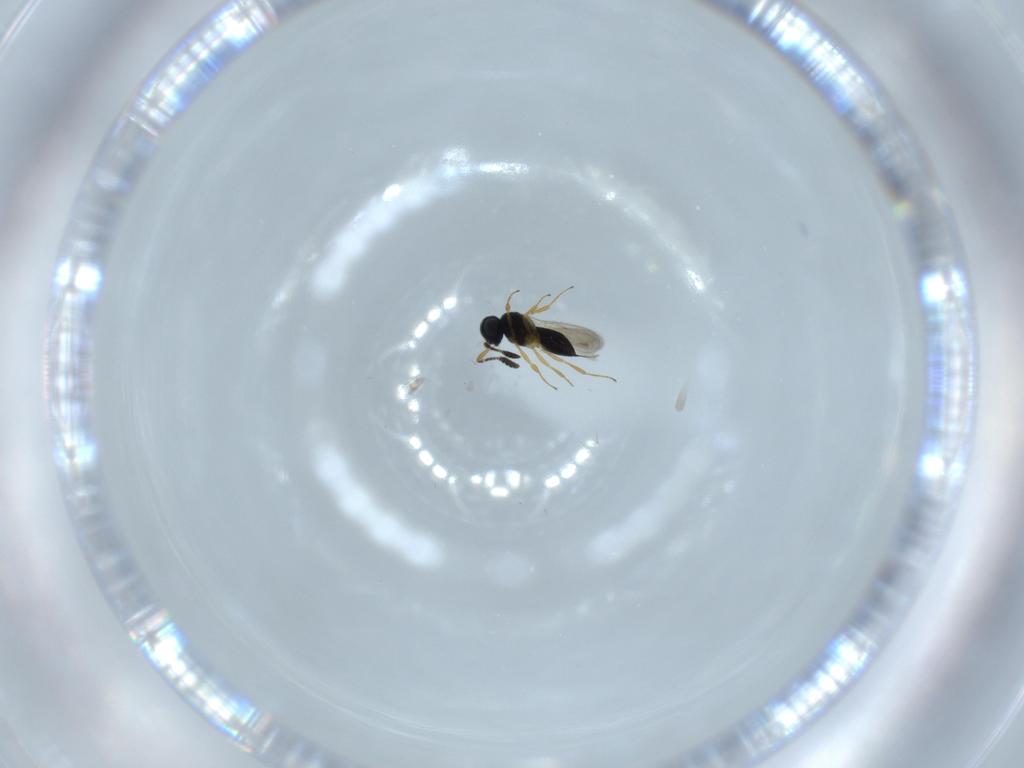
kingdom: Animalia
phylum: Arthropoda
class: Insecta
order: Hymenoptera
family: Scelionidae
